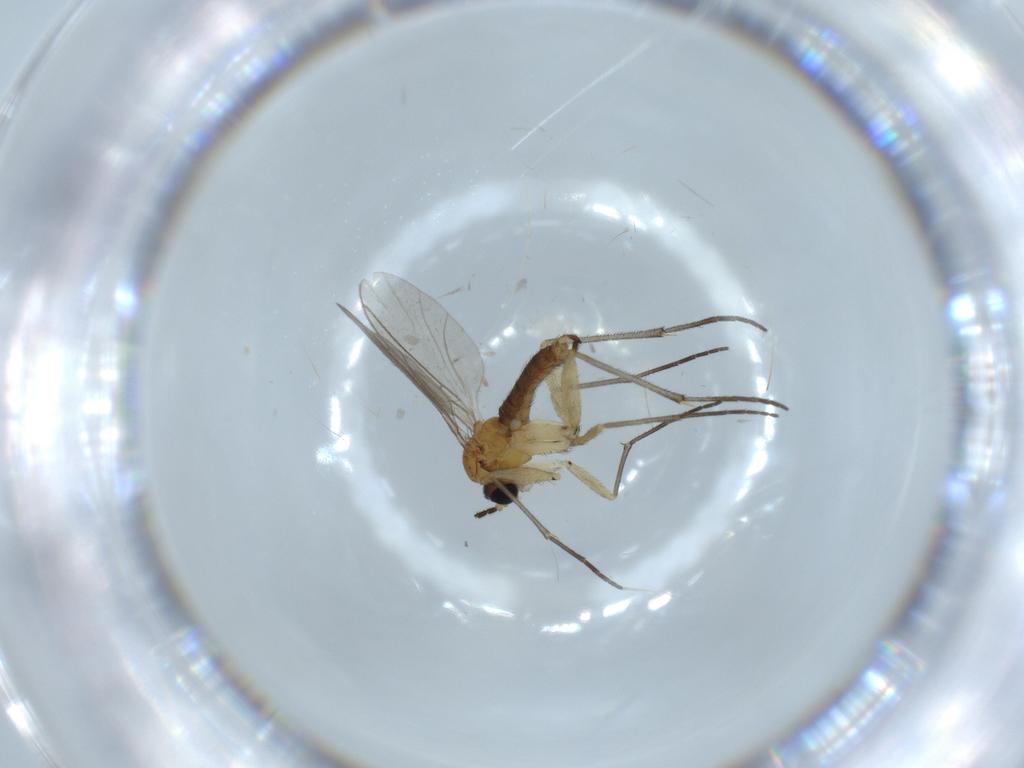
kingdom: Animalia
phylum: Arthropoda
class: Insecta
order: Diptera
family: Sciaridae
